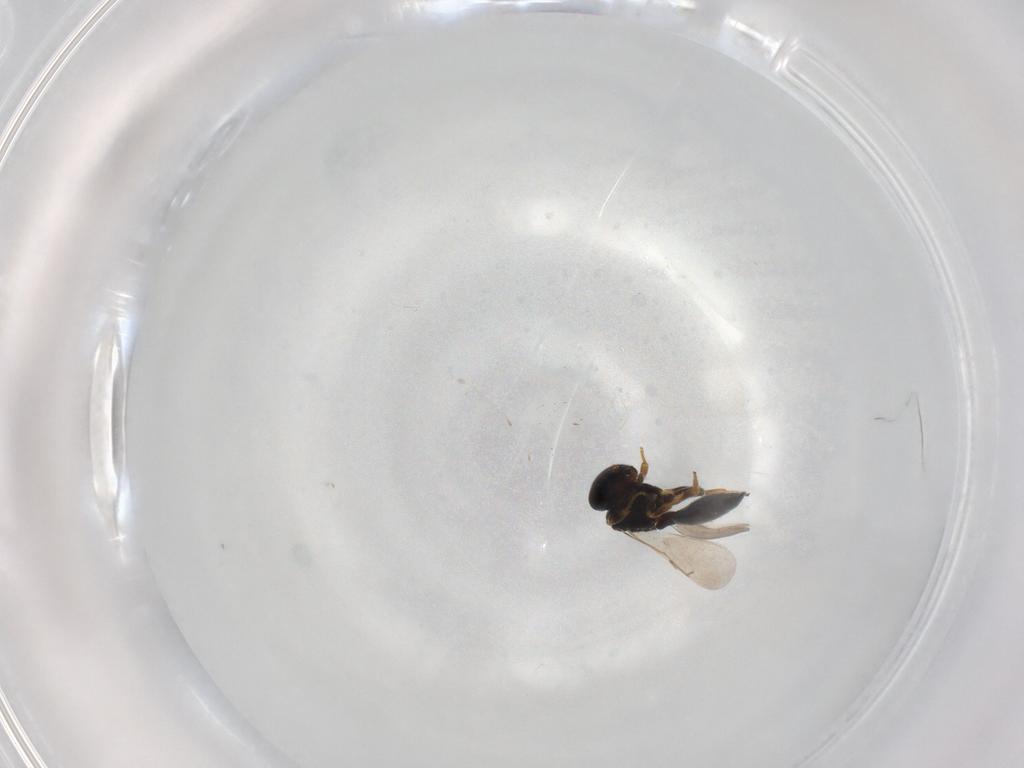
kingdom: Animalia
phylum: Arthropoda
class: Insecta
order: Hymenoptera
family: Scelionidae
